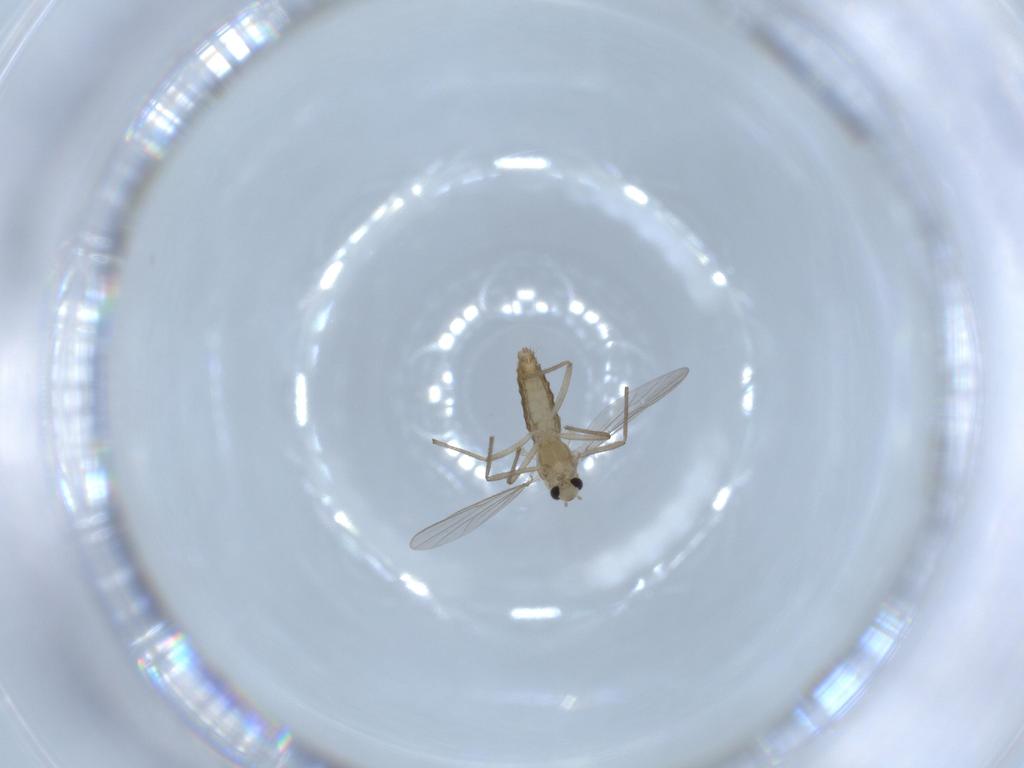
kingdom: Animalia
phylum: Arthropoda
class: Insecta
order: Diptera
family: Chironomidae
